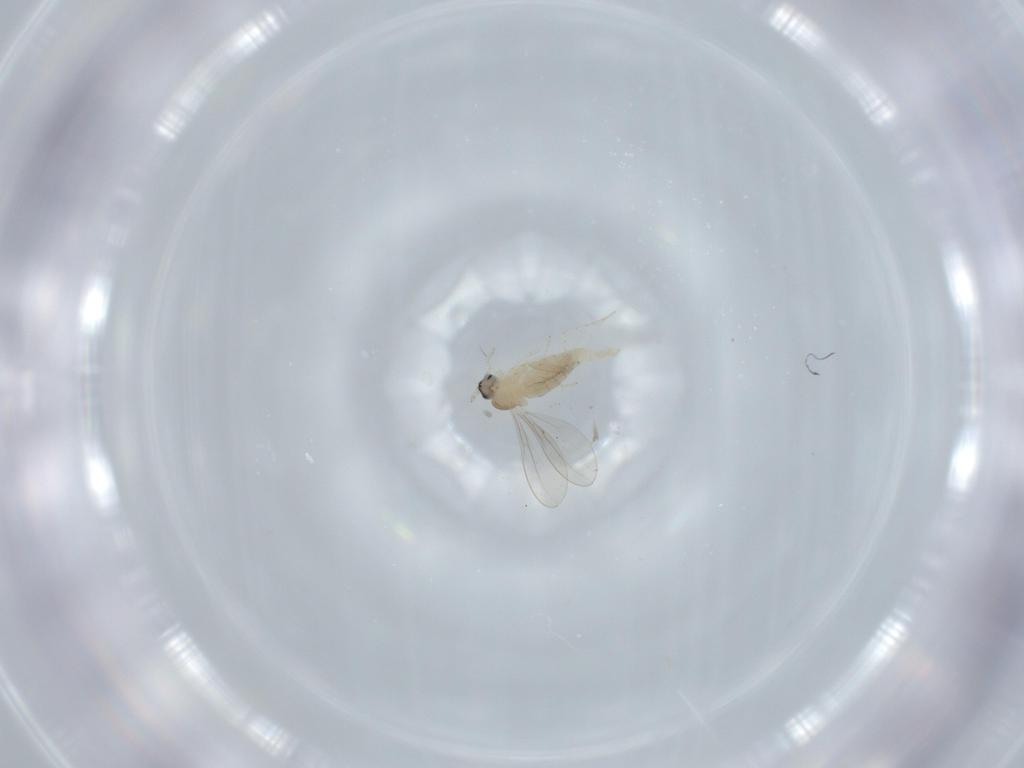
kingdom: Animalia
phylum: Arthropoda
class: Insecta
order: Diptera
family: Cecidomyiidae
